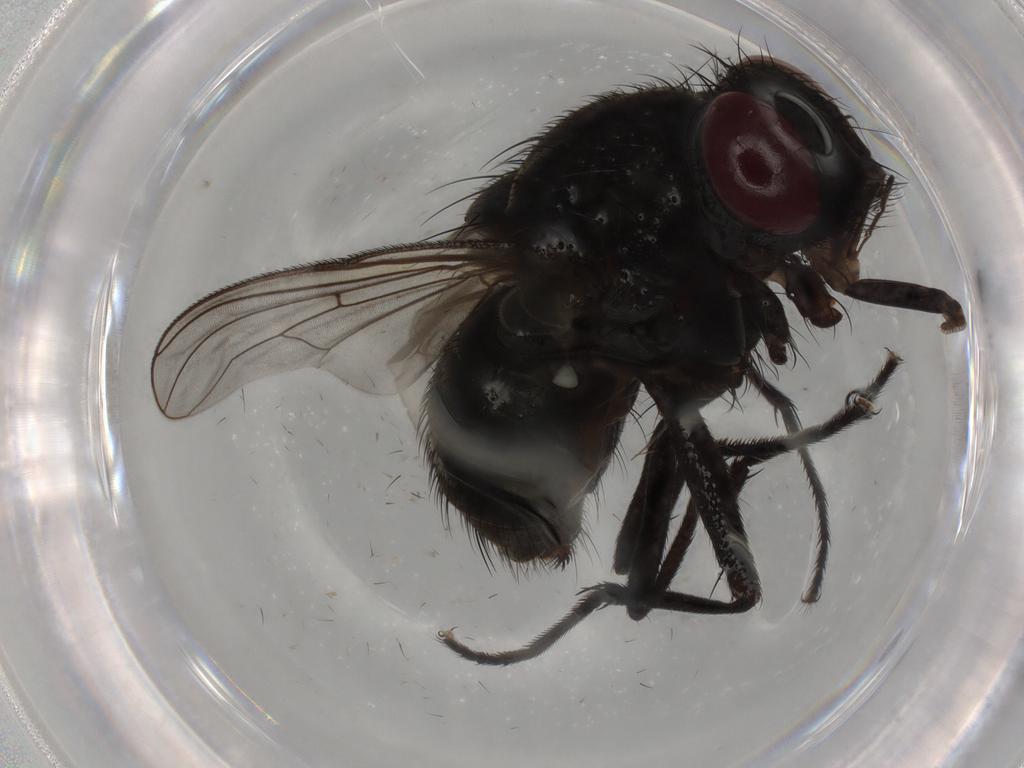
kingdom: Animalia
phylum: Arthropoda
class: Insecta
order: Diptera
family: Muscidae
